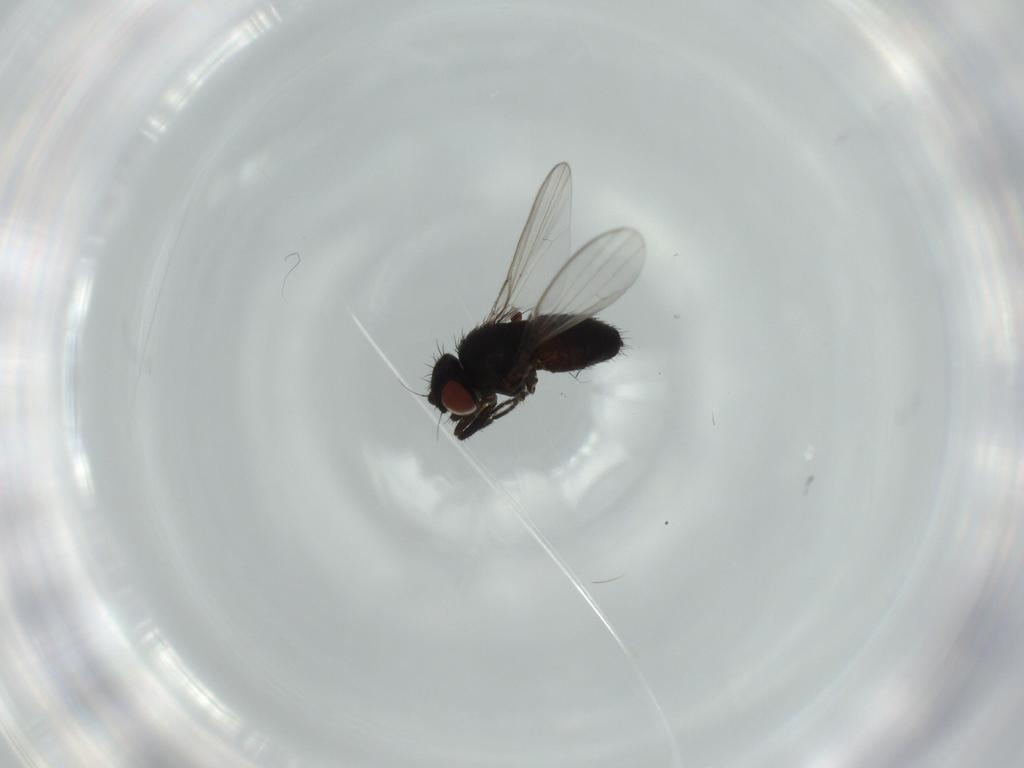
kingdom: Animalia
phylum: Arthropoda
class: Insecta
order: Diptera
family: Milichiidae
